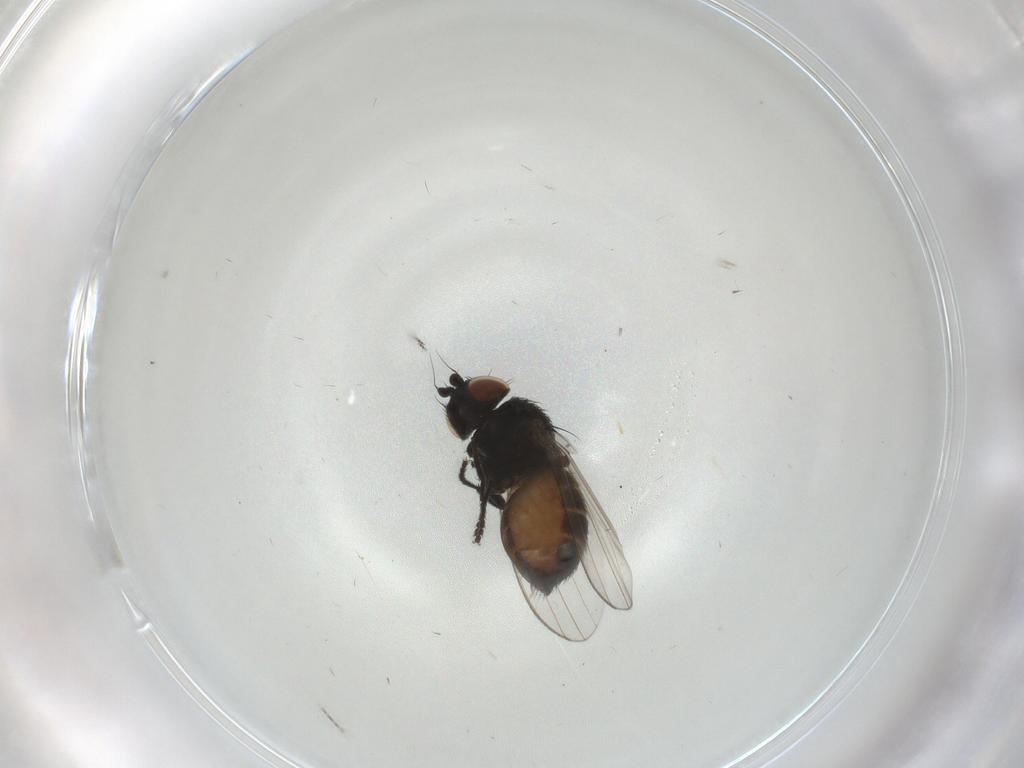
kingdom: Animalia
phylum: Arthropoda
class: Insecta
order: Diptera
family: Milichiidae
